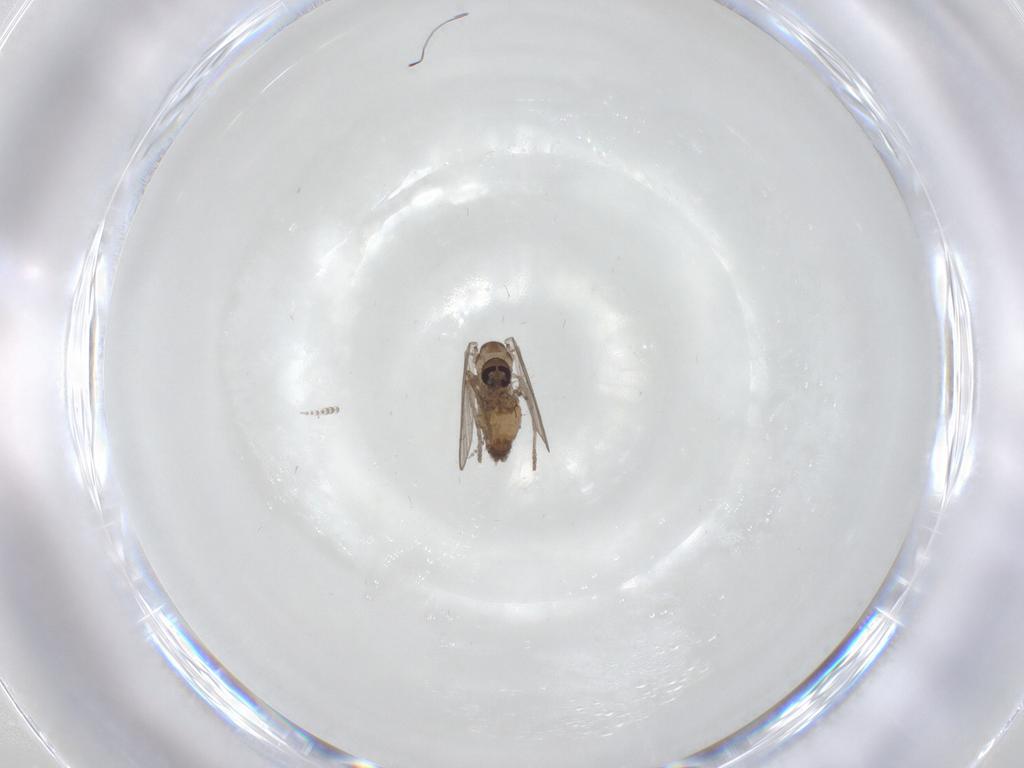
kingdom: Animalia
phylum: Arthropoda
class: Insecta
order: Diptera
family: Psychodidae
